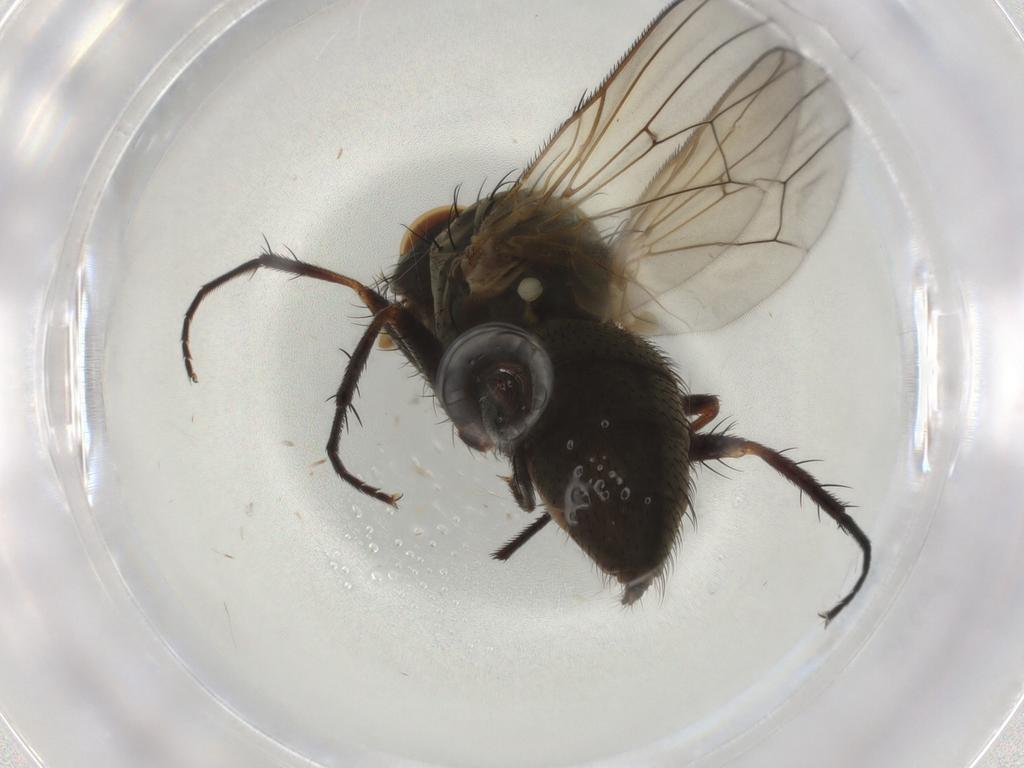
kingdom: Animalia
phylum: Arthropoda
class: Insecta
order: Diptera
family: Anthomyiidae
